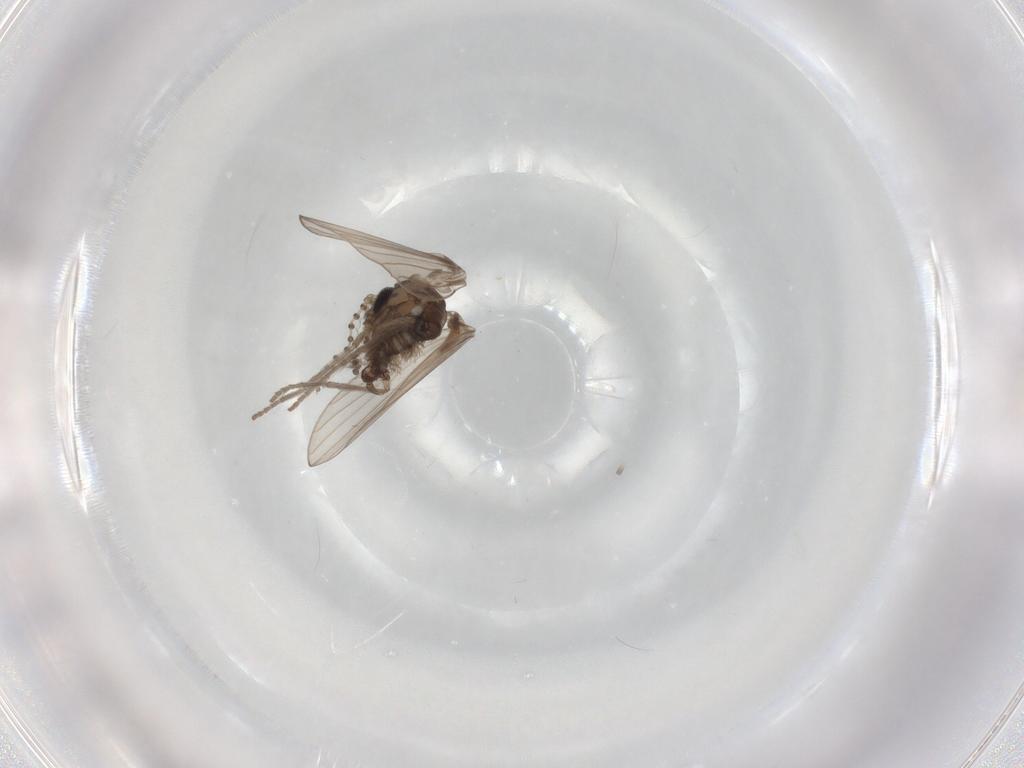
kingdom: Animalia
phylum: Arthropoda
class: Insecta
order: Diptera
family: Psychodidae
